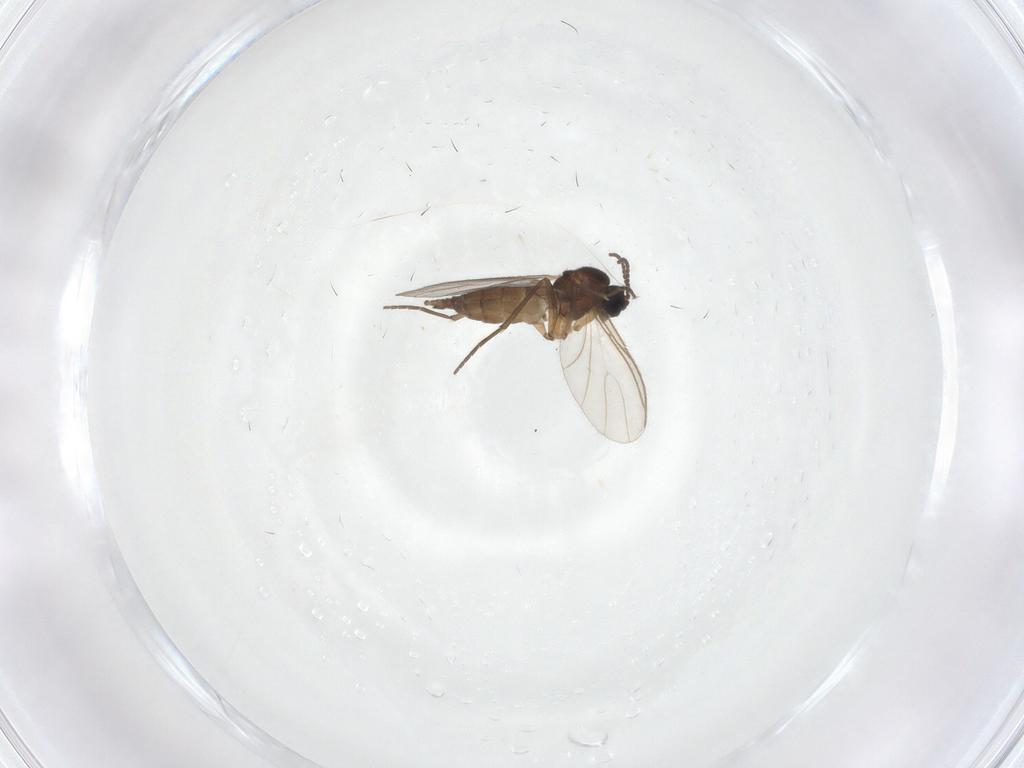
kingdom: Animalia
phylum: Arthropoda
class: Insecta
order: Diptera
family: Sciaridae
